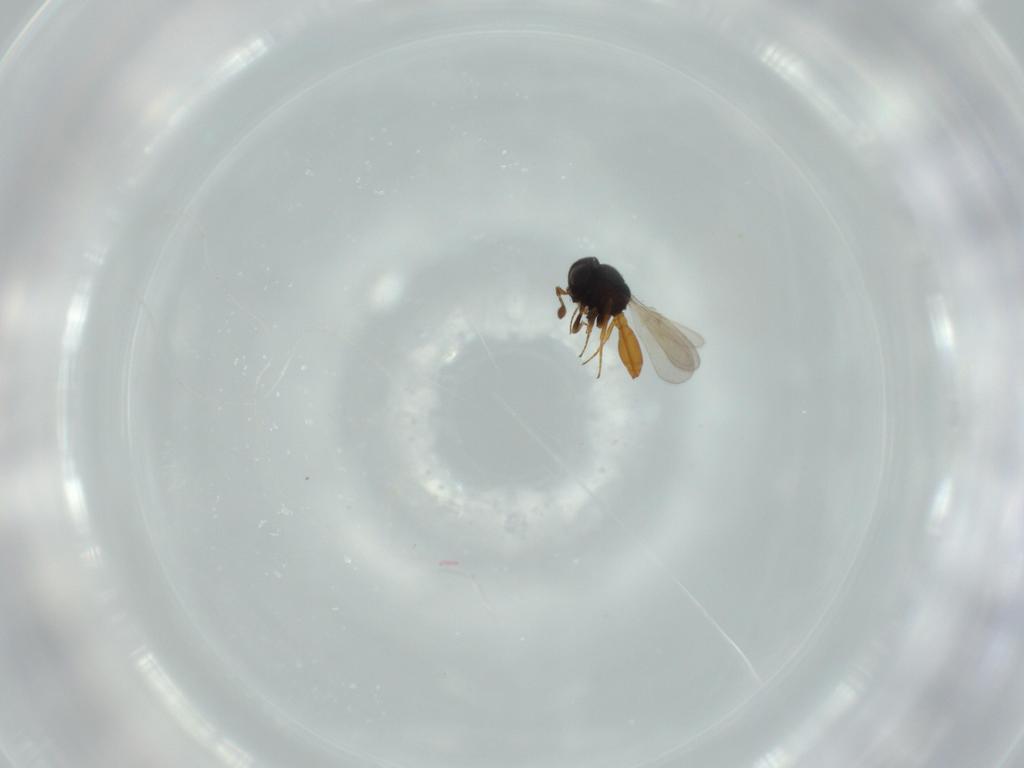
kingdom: Animalia
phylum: Arthropoda
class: Insecta
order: Hymenoptera
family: Scelionidae
